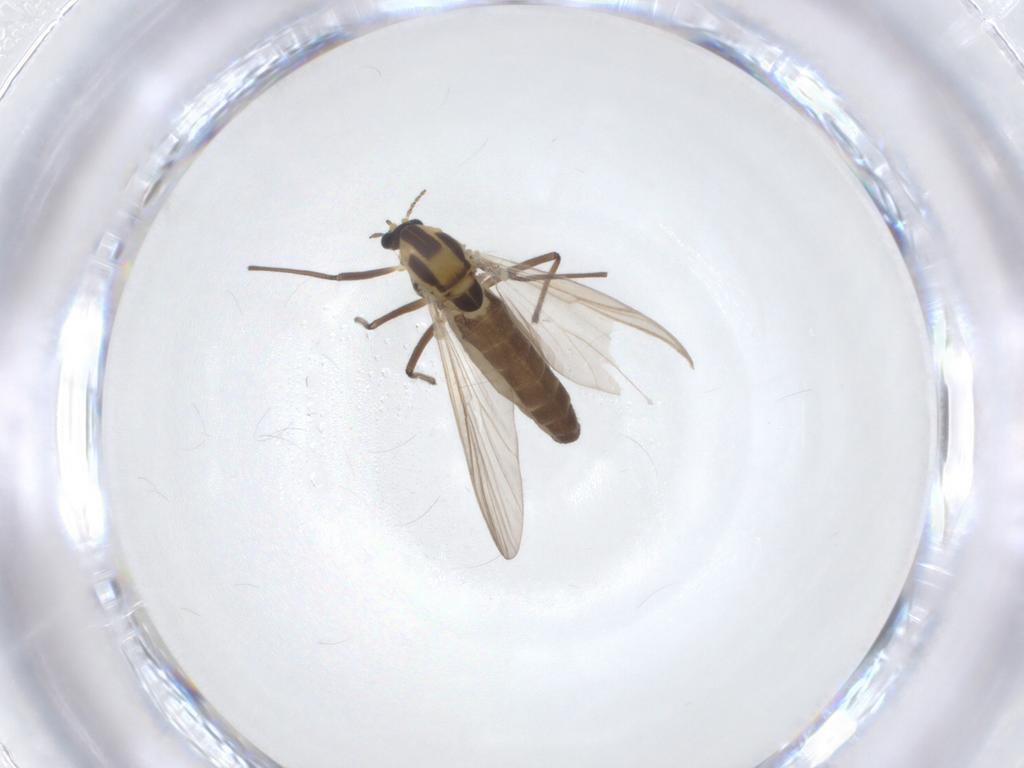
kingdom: Animalia
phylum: Arthropoda
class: Insecta
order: Diptera
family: Chironomidae
